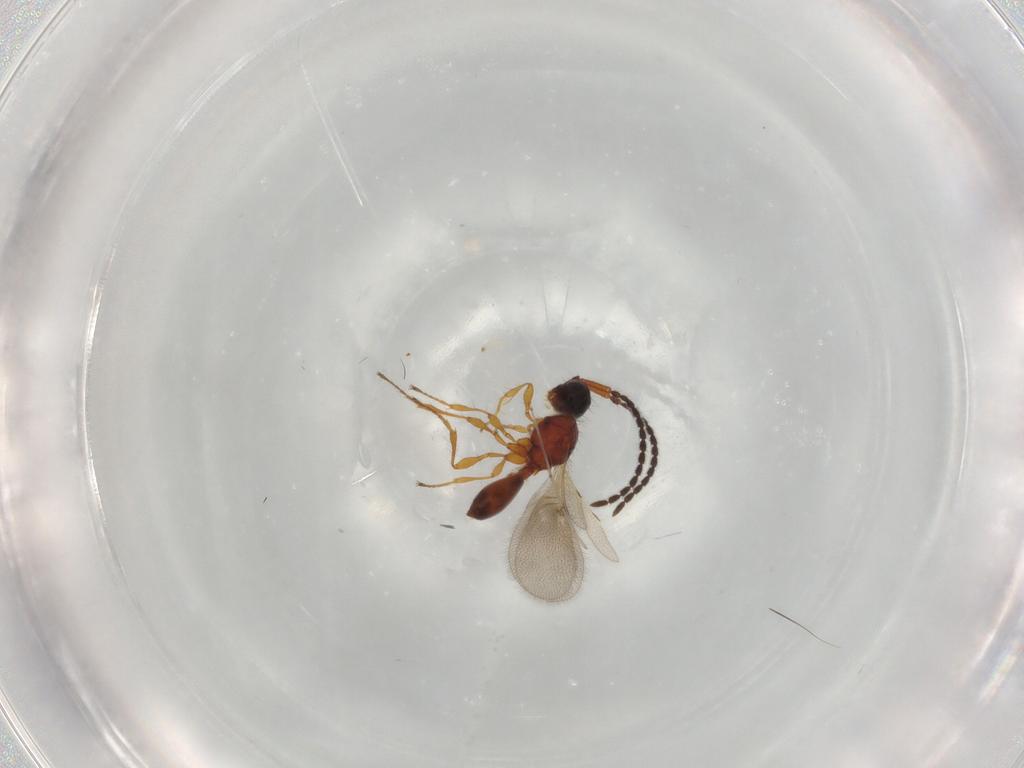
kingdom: Animalia
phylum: Arthropoda
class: Insecta
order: Hymenoptera
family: Diapriidae
